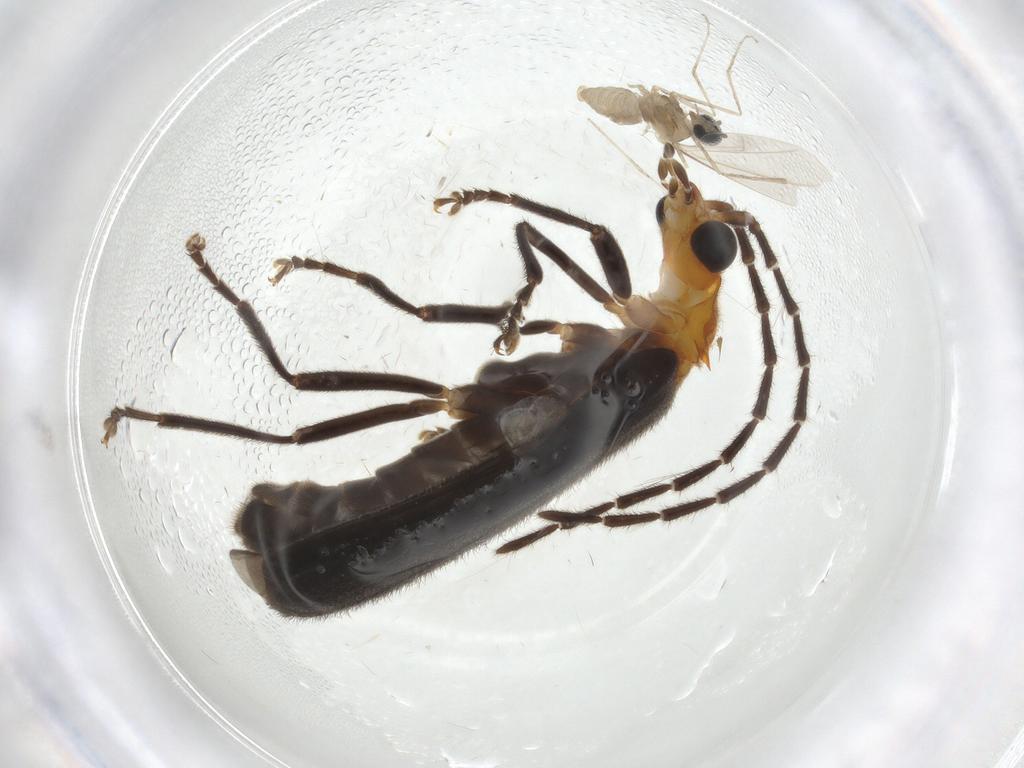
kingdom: Animalia
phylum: Arthropoda
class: Insecta
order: Coleoptera
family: Cantharidae
